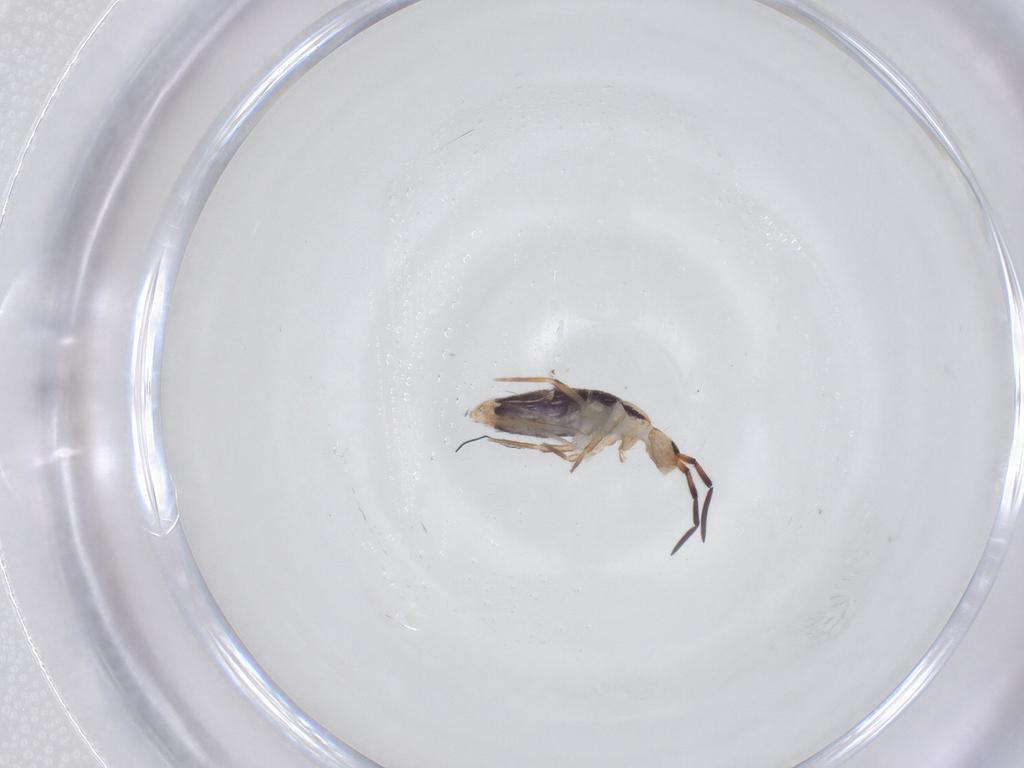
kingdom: Animalia
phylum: Arthropoda
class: Collembola
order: Entomobryomorpha
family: Entomobryidae
